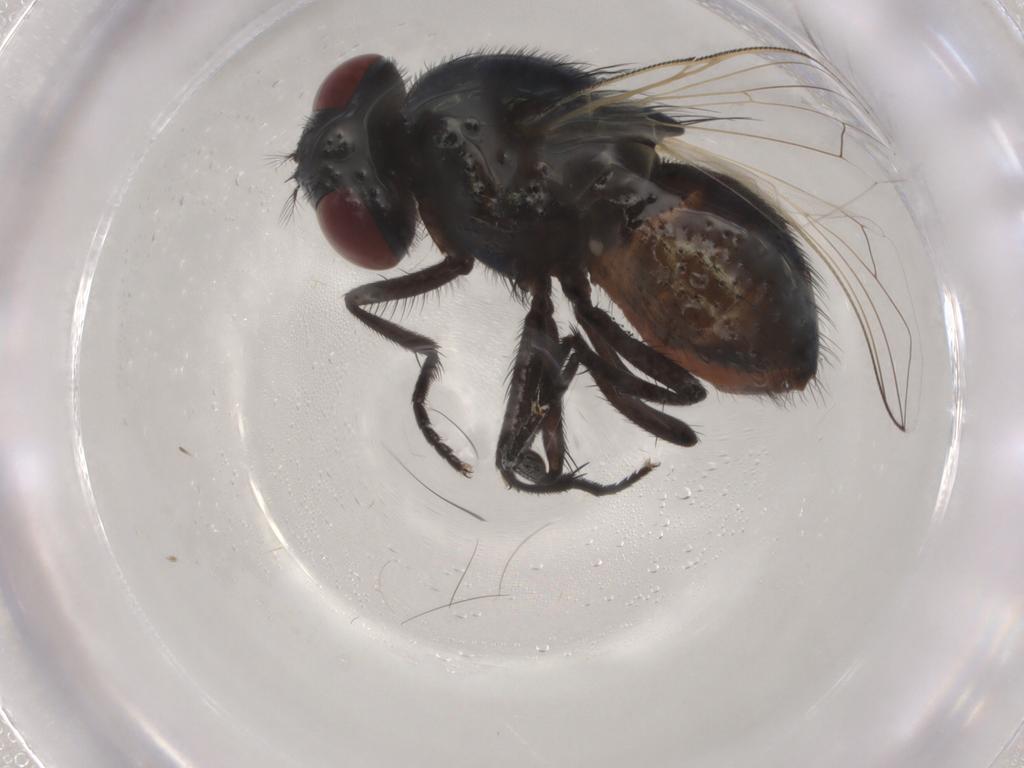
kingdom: Animalia
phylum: Arthropoda
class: Insecta
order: Diptera
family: Muscidae
